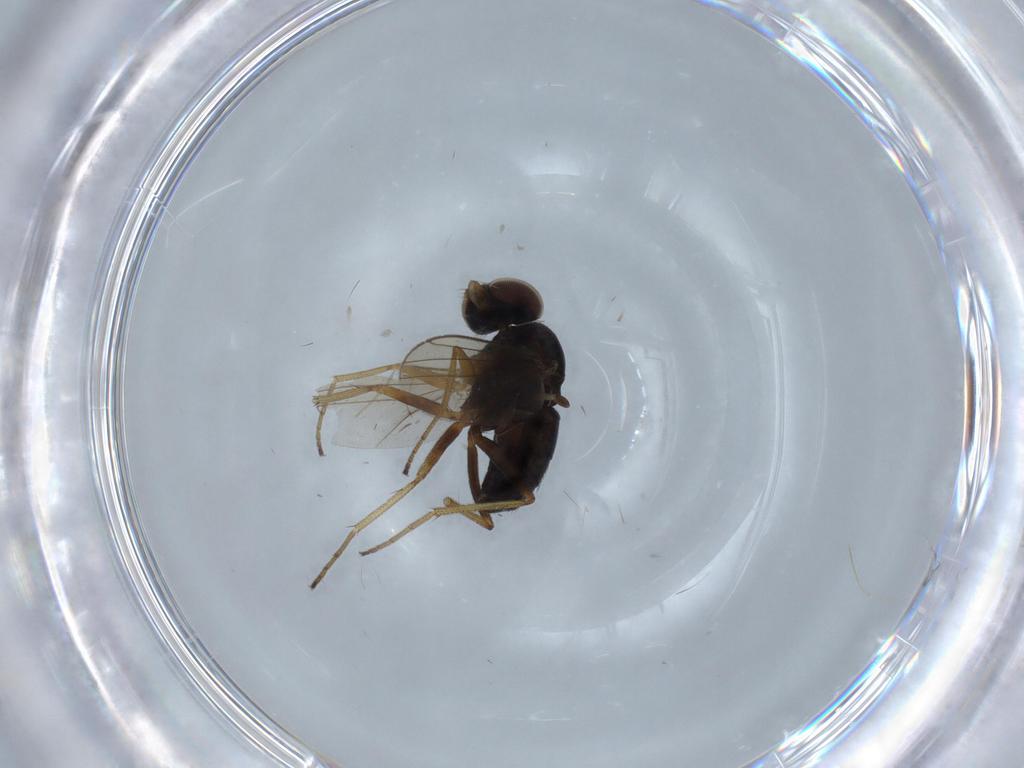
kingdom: Animalia
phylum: Arthropoda
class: Insecta
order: Diptera
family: Dolichopodidae
